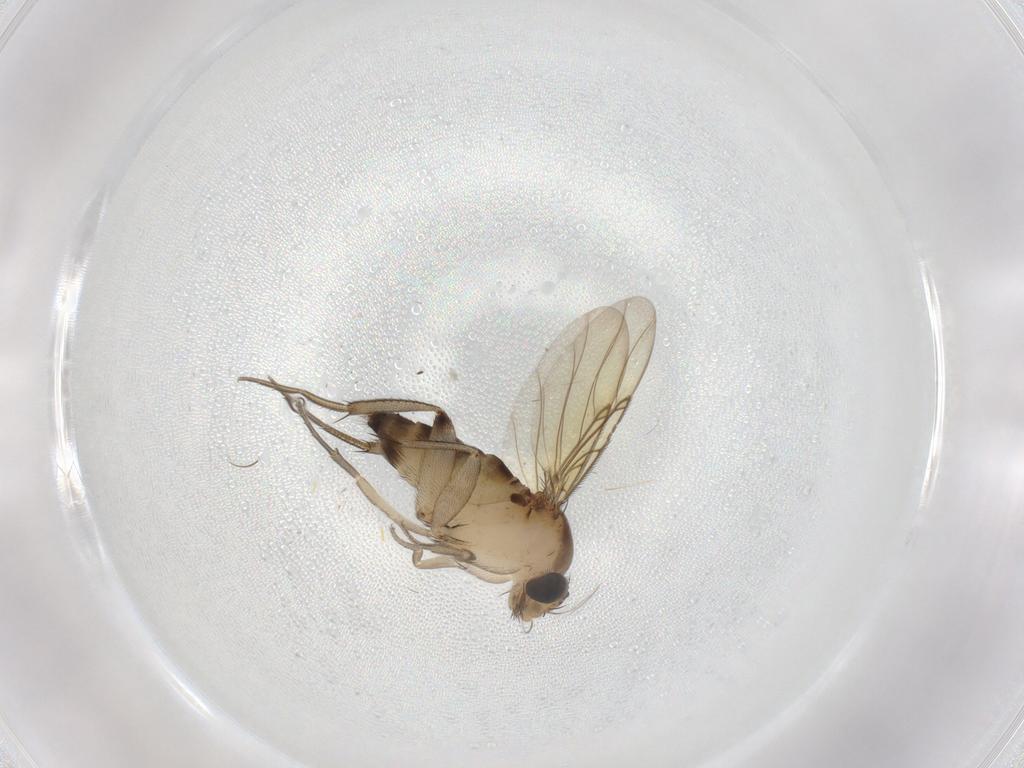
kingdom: Animalia
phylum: Arthropoda
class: Insecta
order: Diptera
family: Phoridae
